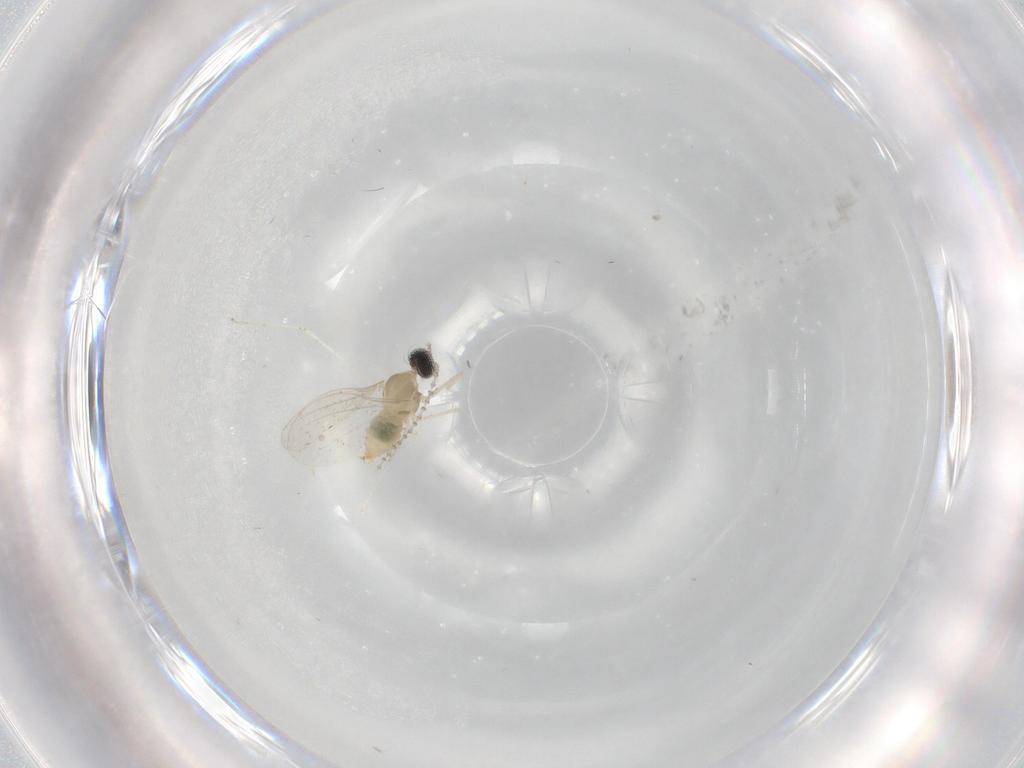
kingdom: Animalia
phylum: Arthropoda
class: Insecta
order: Diptera
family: Cecidomyiidae
